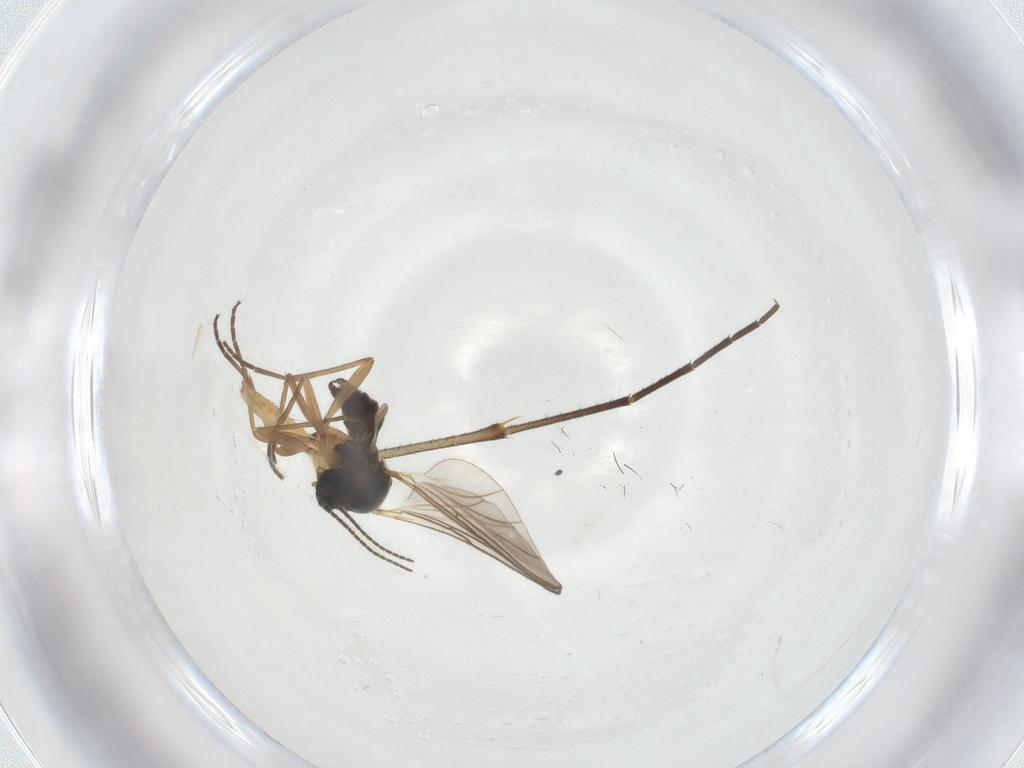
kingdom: Animalia
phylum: Arthropoda
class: Insecta
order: Diptera
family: Mycetophilidae
